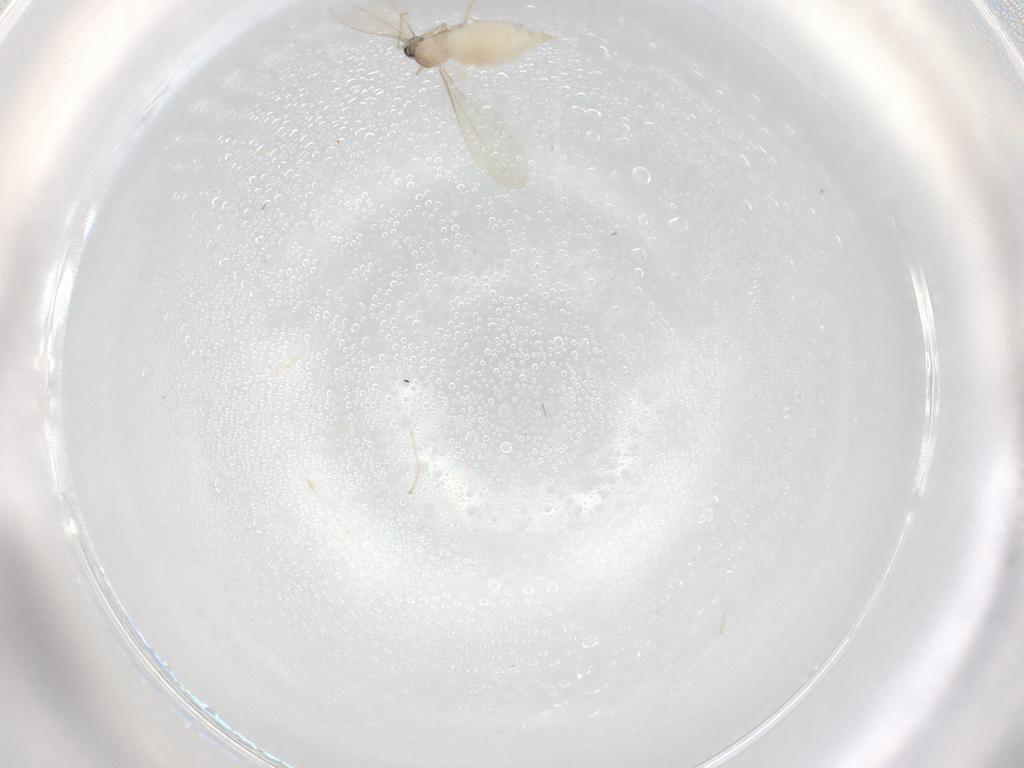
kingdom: Animalia
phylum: Arthropoda
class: Insecta
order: Diptera
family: Cecidomyiidae
